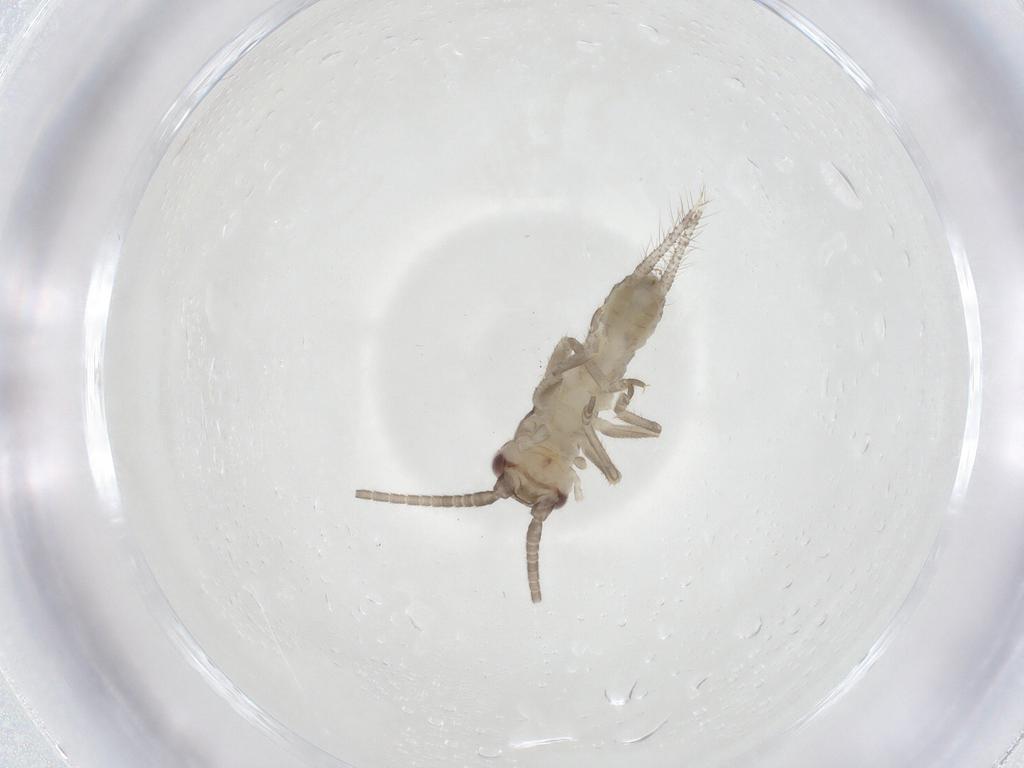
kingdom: Animalia
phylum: Arthropoda
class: Insecta
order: Orthoptera
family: Gryllidae
